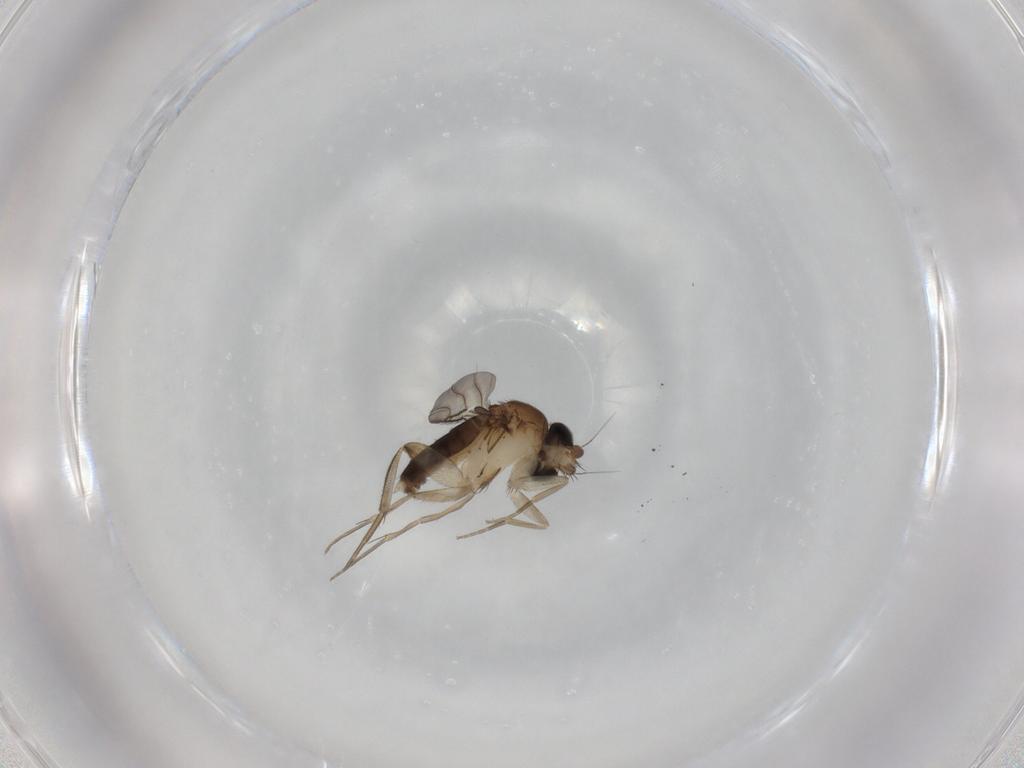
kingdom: Animalia
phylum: Arthropoda
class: Insecta
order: Diptera
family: Phoridae
